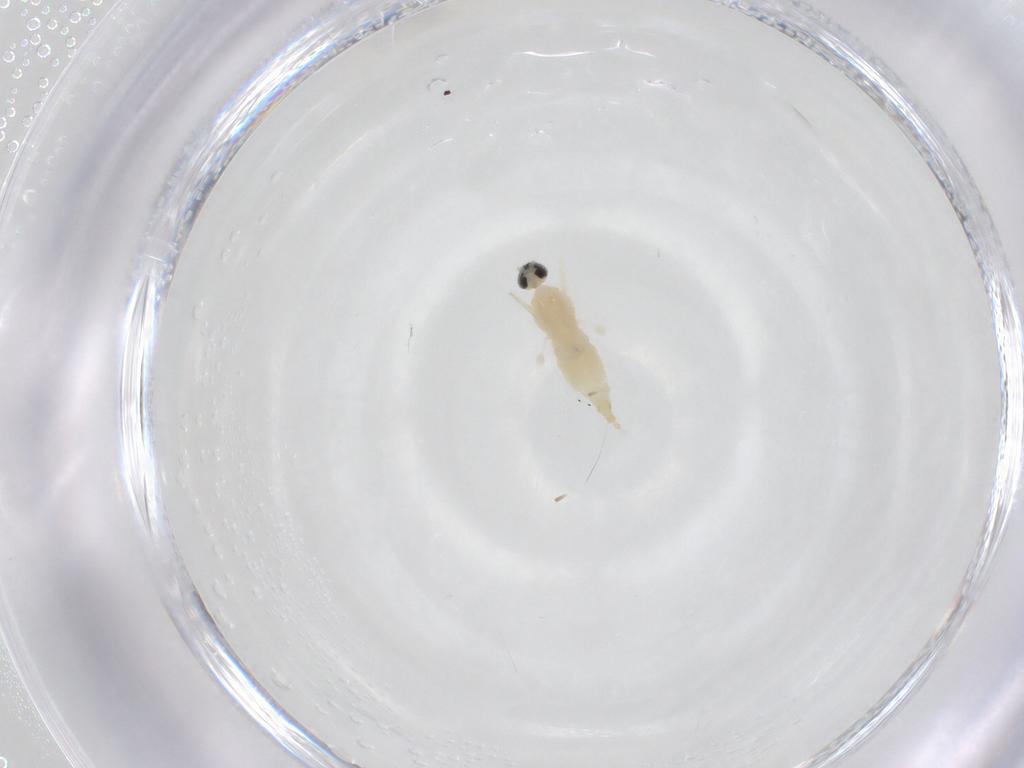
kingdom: Animalia
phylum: Arthropoda
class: Insecta
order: Diptera
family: Cecidomyiidae
